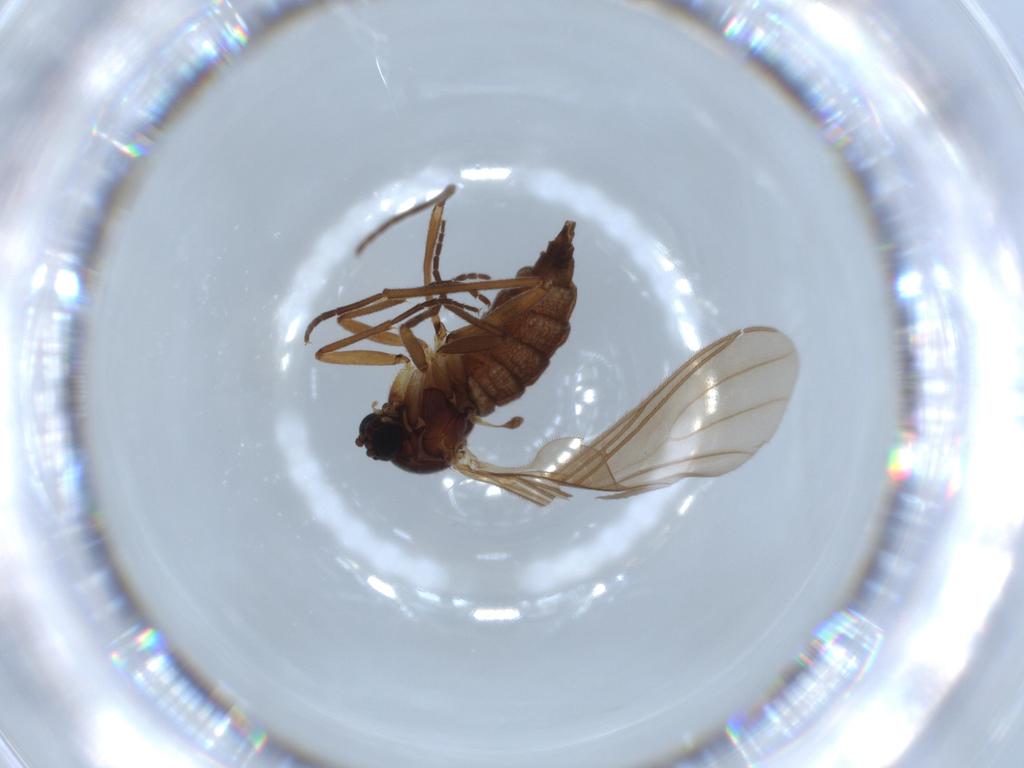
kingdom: Animalia
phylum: Arthropoda
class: Insecta
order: Diptera
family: Sciaridae
